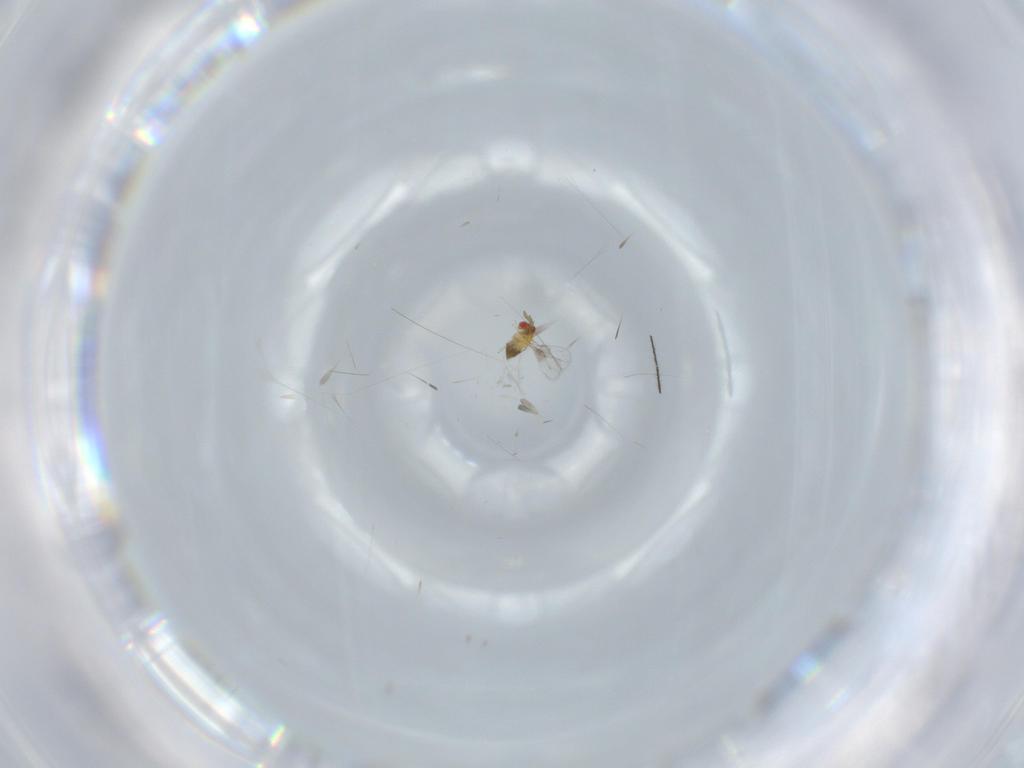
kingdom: Animalia
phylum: Arthropoda
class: Insecta
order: Hymenoptera
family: Trichogrammatidae
